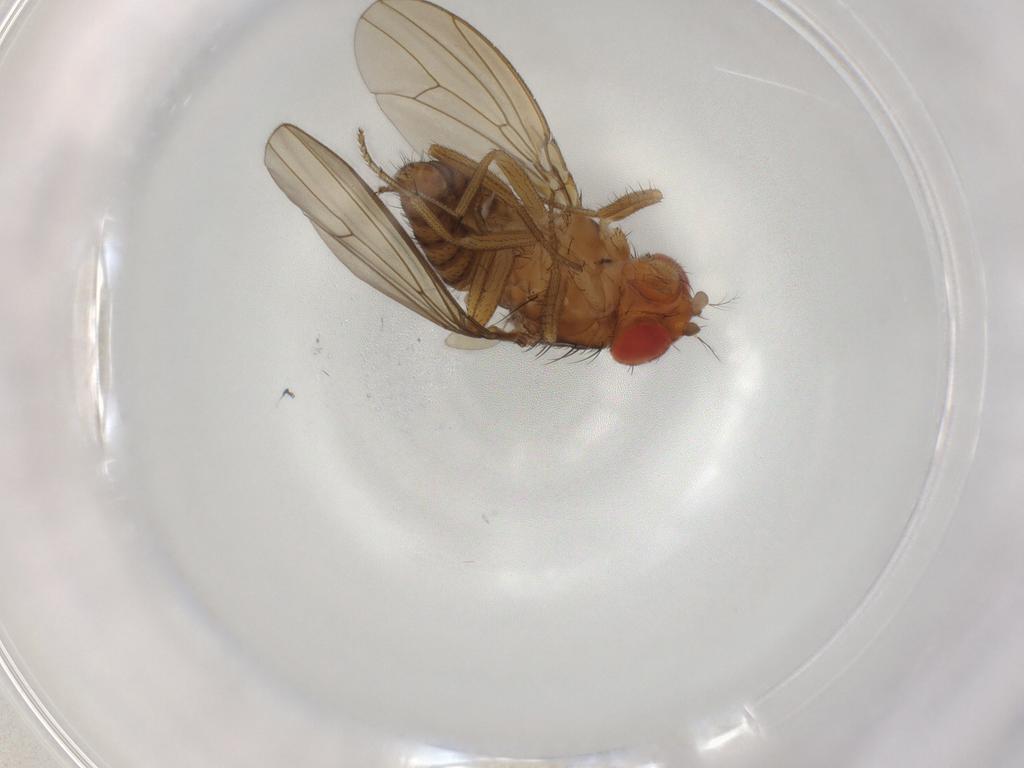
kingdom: Animalia
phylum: Arthropoda
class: Insecta
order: Diptera
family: Drosophilidae
